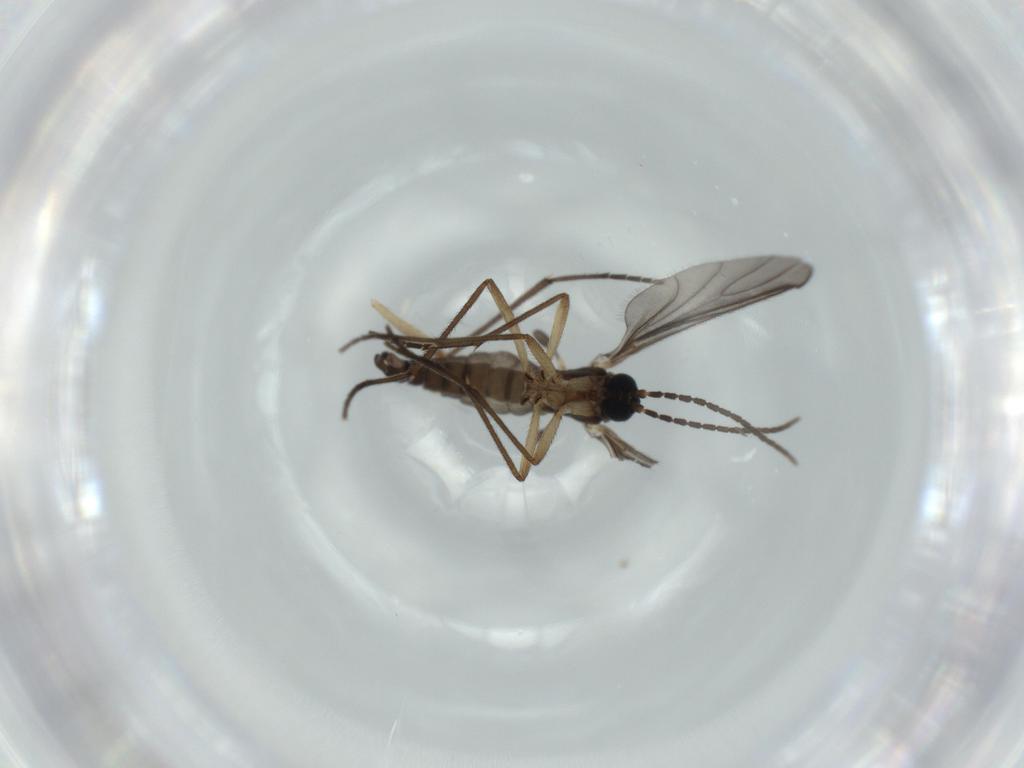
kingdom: Animalia
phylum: Arthropoda
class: Insecta
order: Diptera
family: Sciaridae
